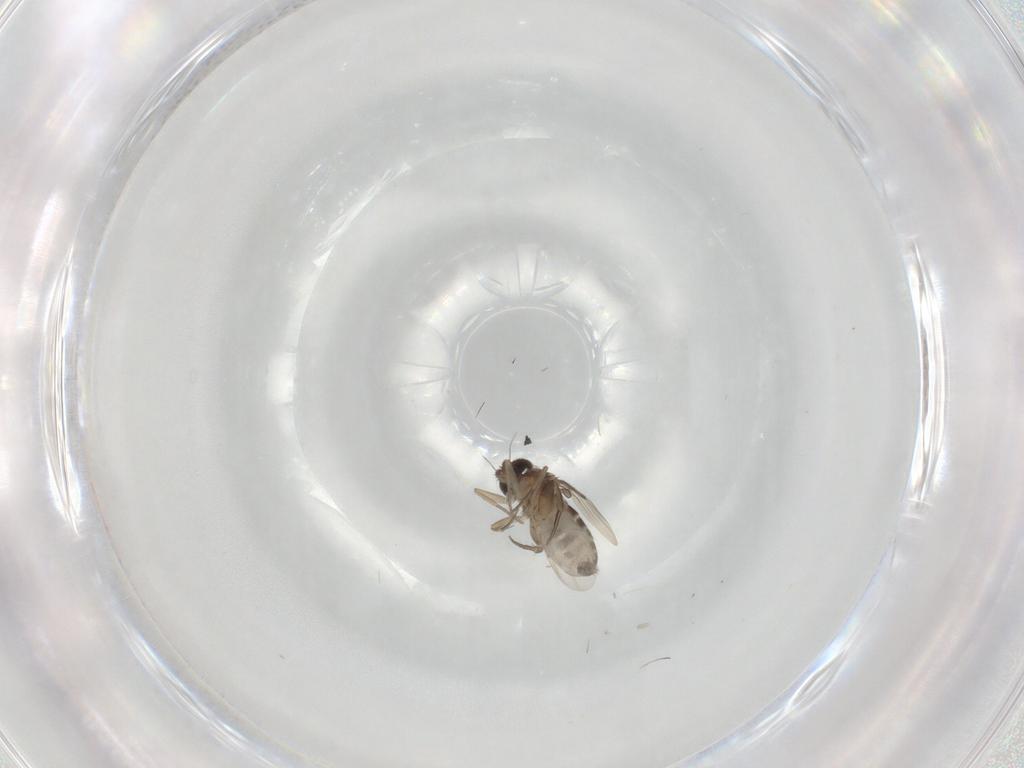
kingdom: Animalia
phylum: Arthropoda
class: Insecta
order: Diptera
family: Phoridae
